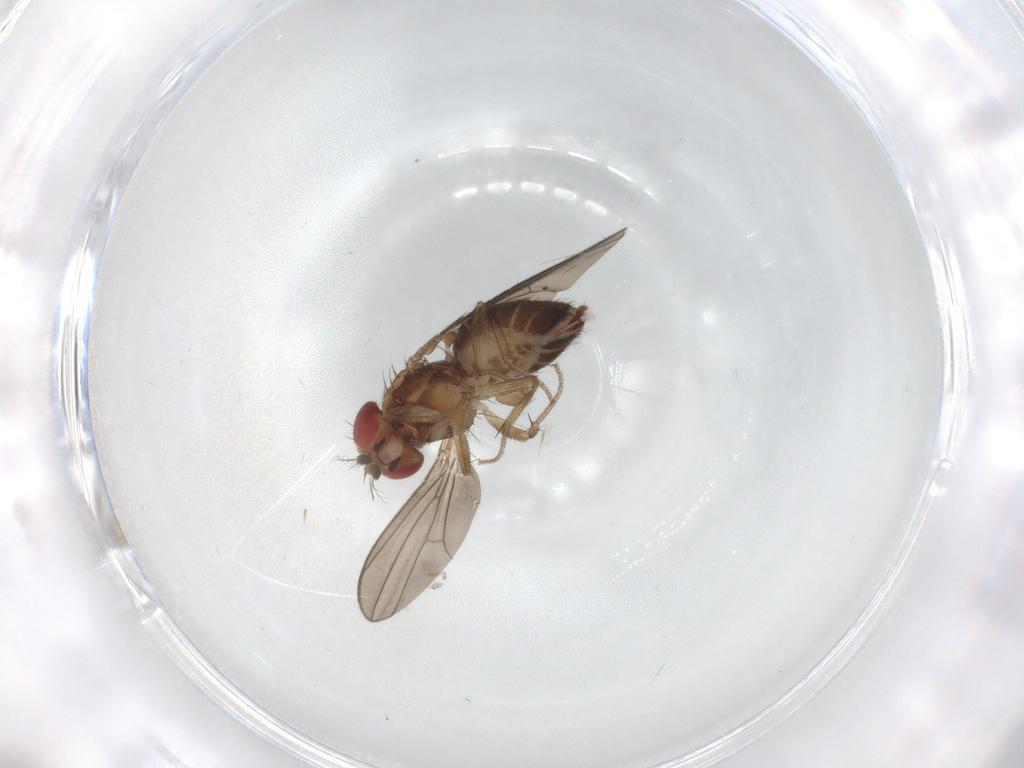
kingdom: Animalia
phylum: Arthropoda
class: Insecta
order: Diptera
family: Drosophilidae
